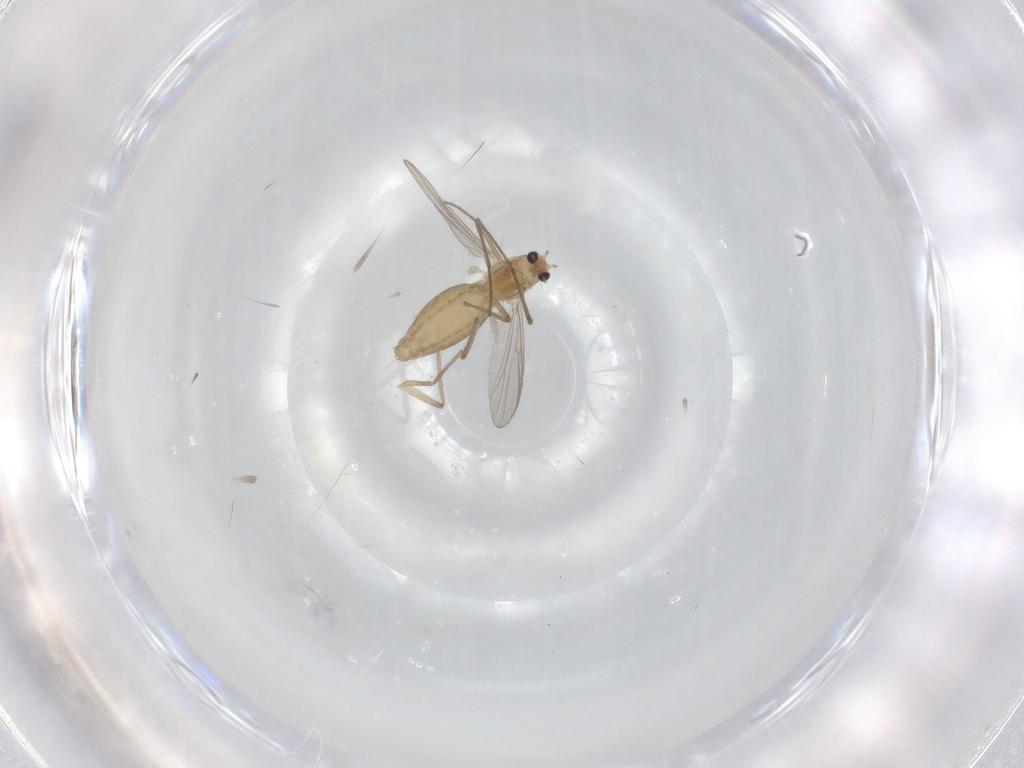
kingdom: Animalia
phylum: Arthropoda
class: Insecta
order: Diptera
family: Chironomidae
